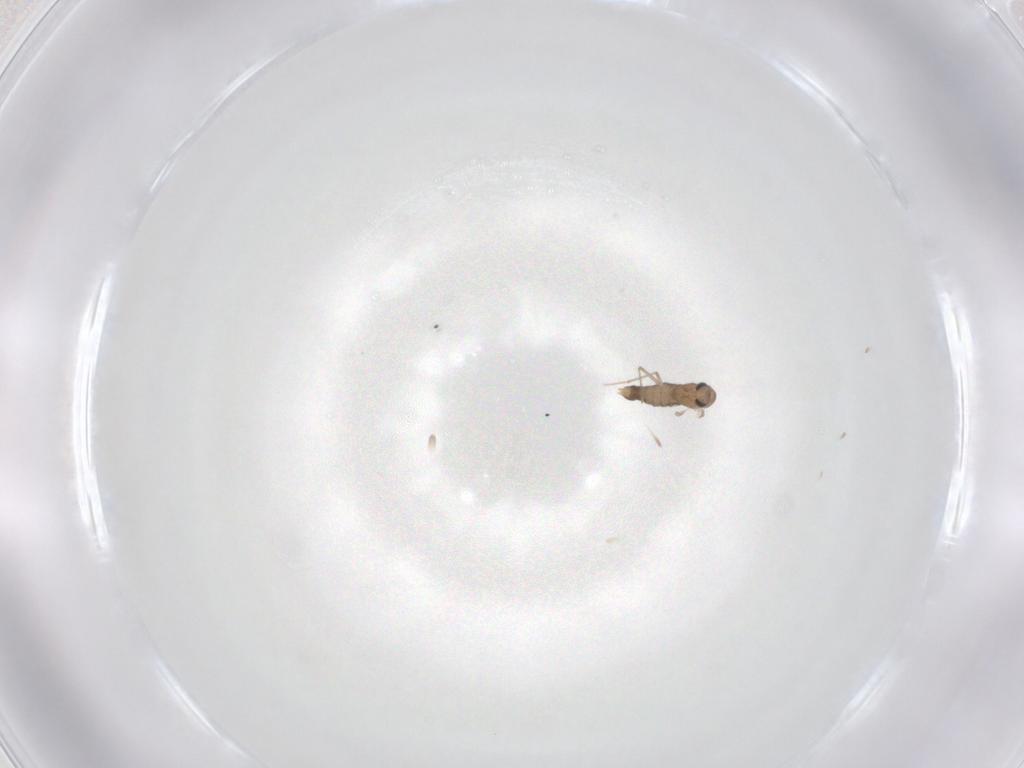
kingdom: Animalia
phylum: Arthropoda
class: Insecta
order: Diptera
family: Chironomidae
